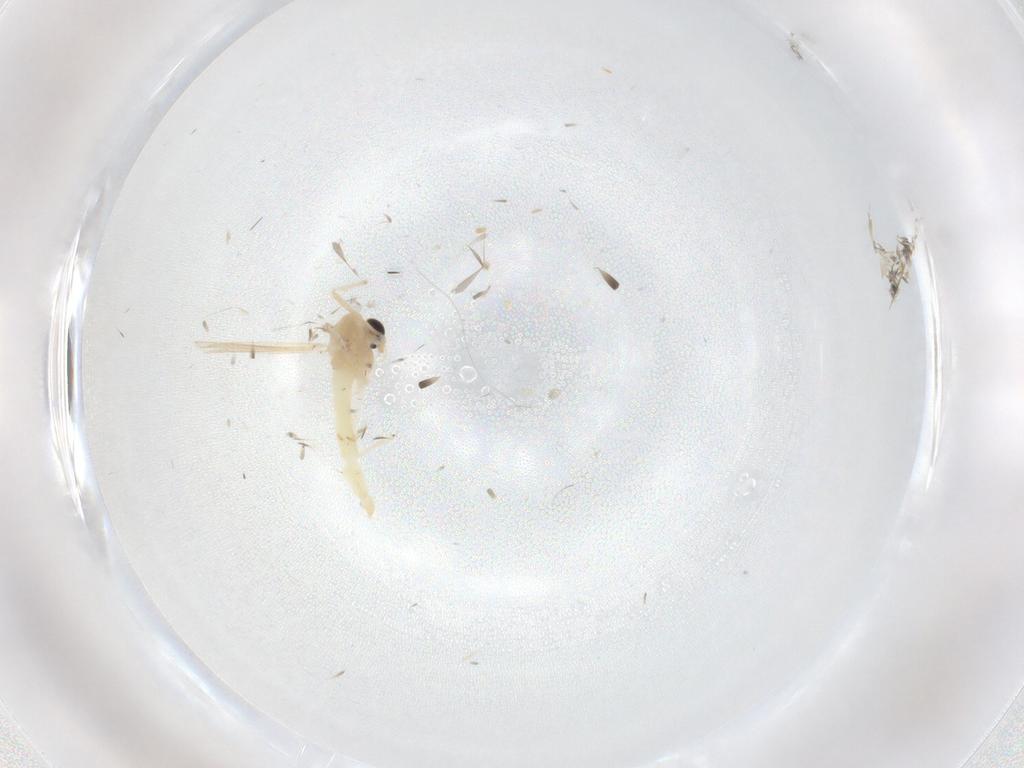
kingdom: Animalia
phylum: Arthropoda
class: Insecta
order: Diptera
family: Cecidomyiidae
